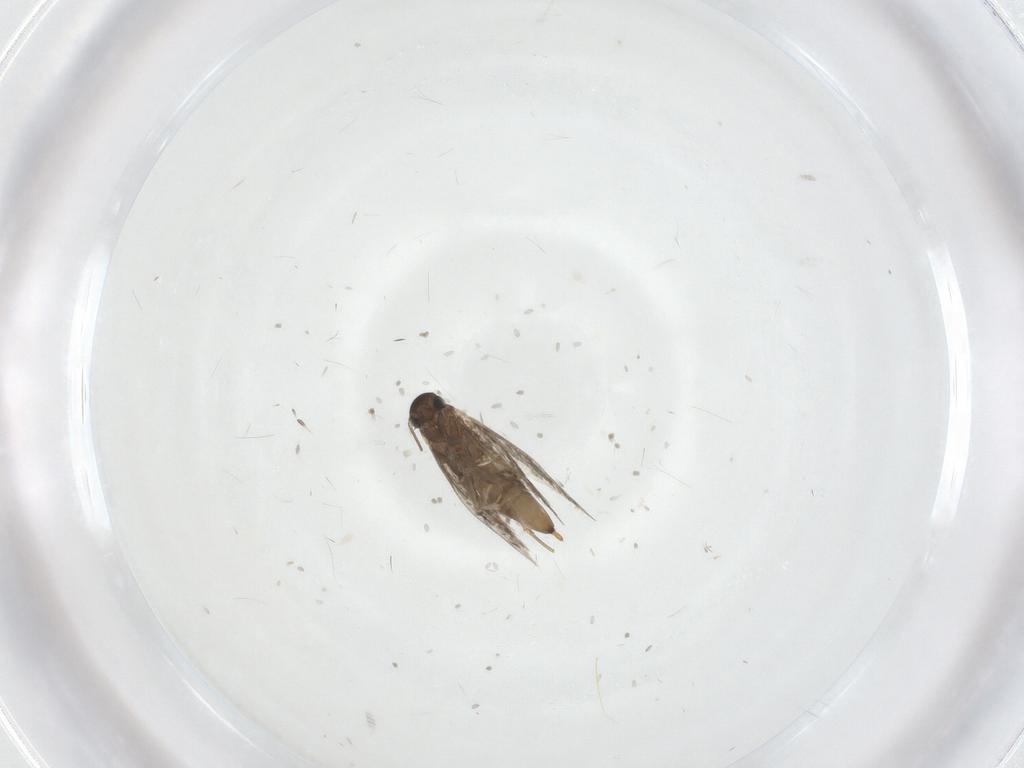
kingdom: Animalia
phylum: Arthropoda
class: Insecta
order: Lepidoptera
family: Heliozelidae
